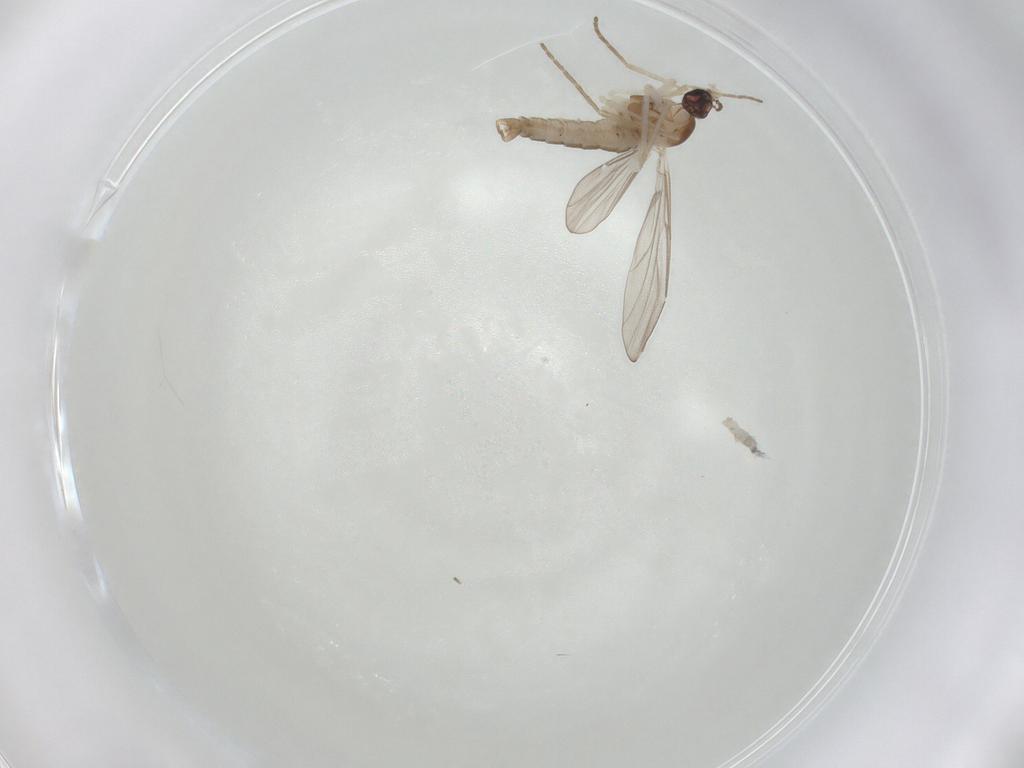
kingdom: Animalia
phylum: Arthropoda
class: Insecta
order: Diptera
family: Cecidomyiidae
